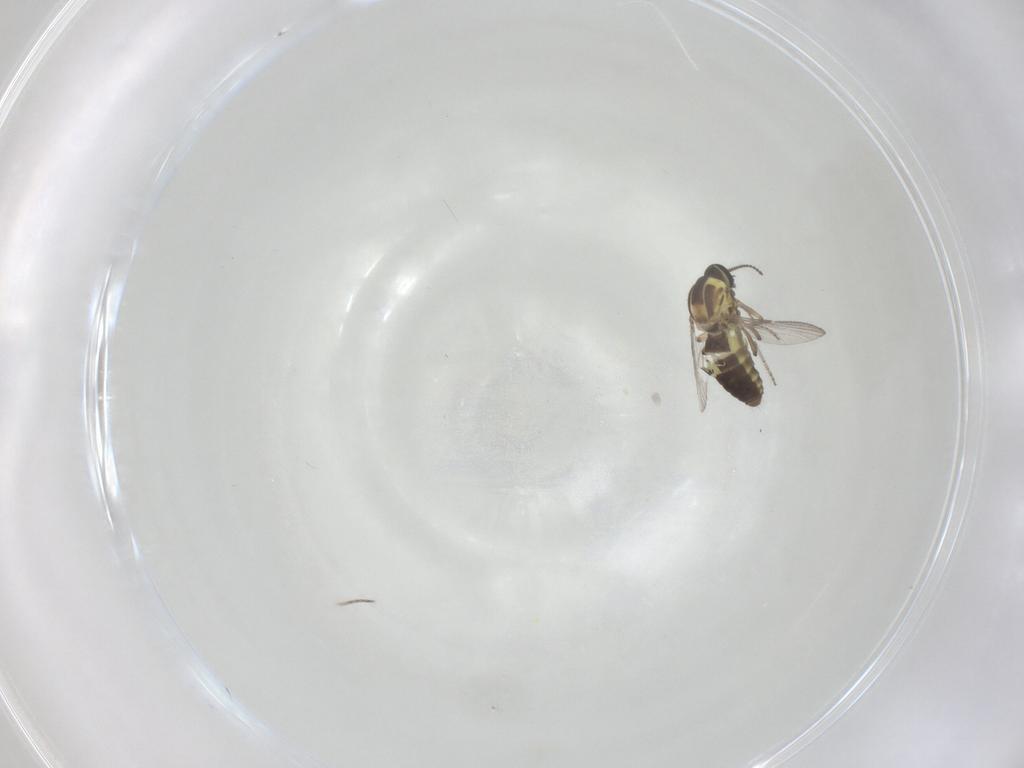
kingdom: Animalia
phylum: Arthropoda
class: Insecta
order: Diptera
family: Ceratopogonidae
